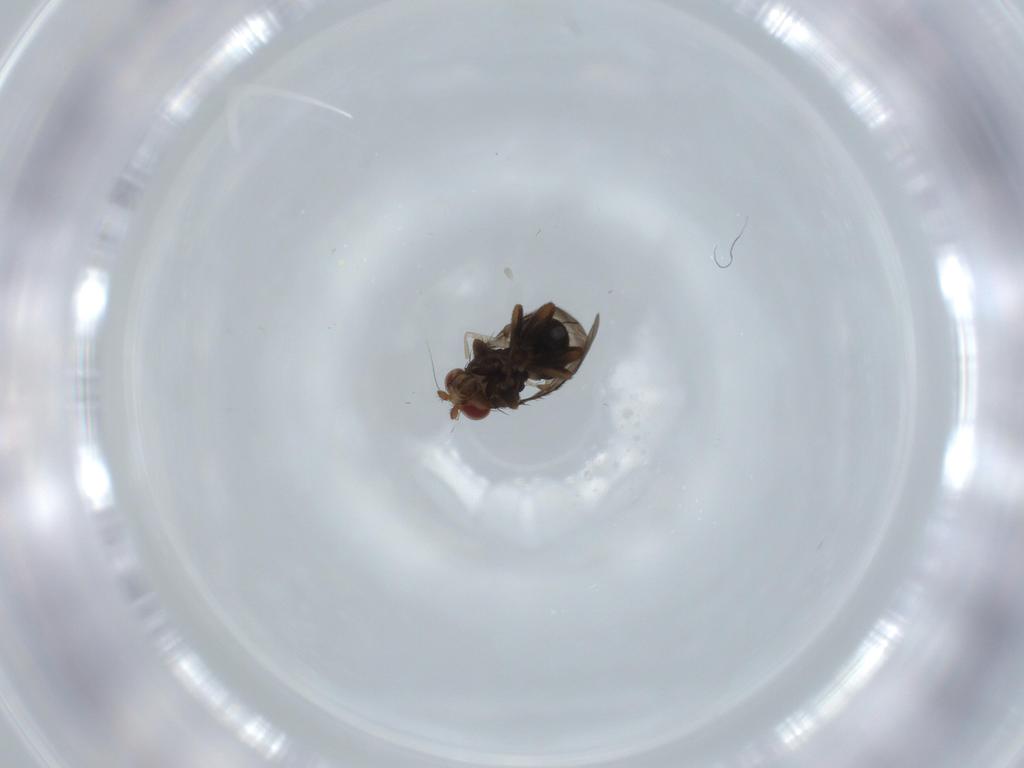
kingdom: Animalia
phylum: Arthropoda
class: Insecta
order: Diptera
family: Phoridae
